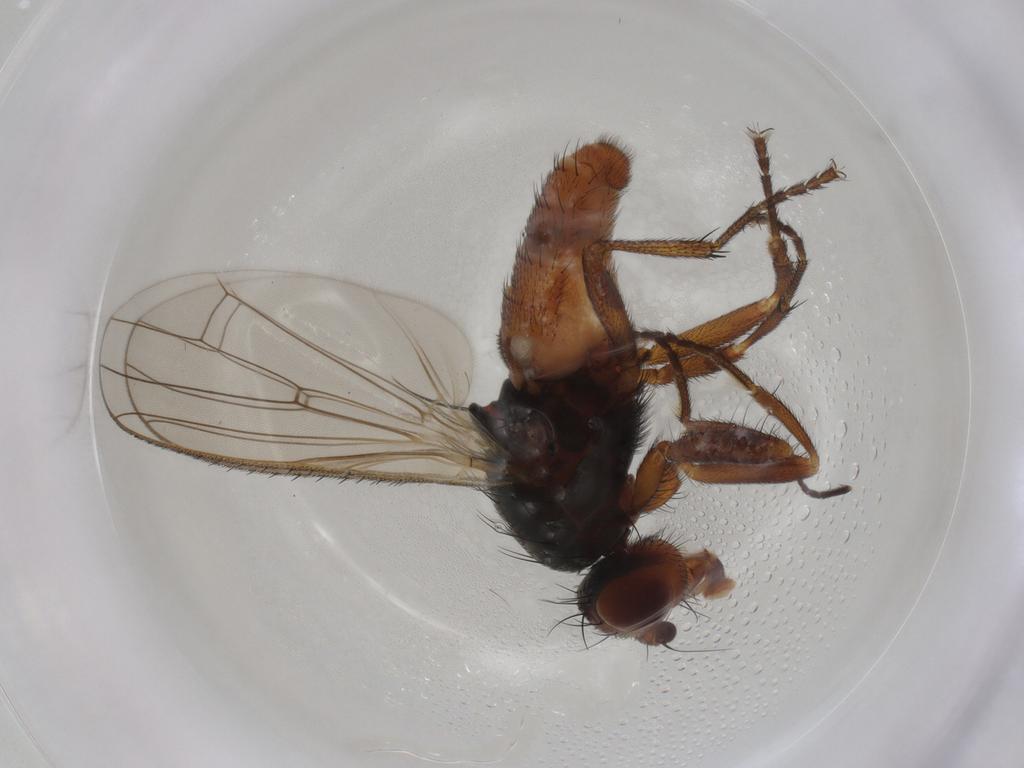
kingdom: Animalia
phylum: Arthropoda
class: Insecta
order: Diptera
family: Heleomyzidae
